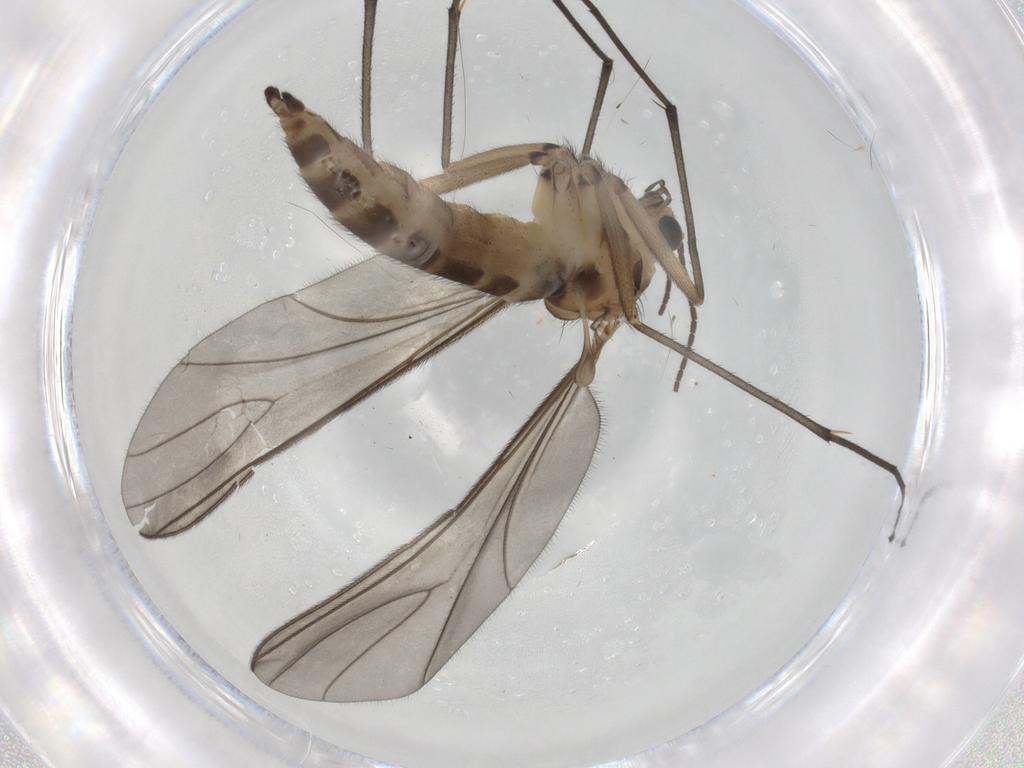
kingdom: Animalia
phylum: Arthropoda
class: Insecta
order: Diptera
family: Sciaridae
